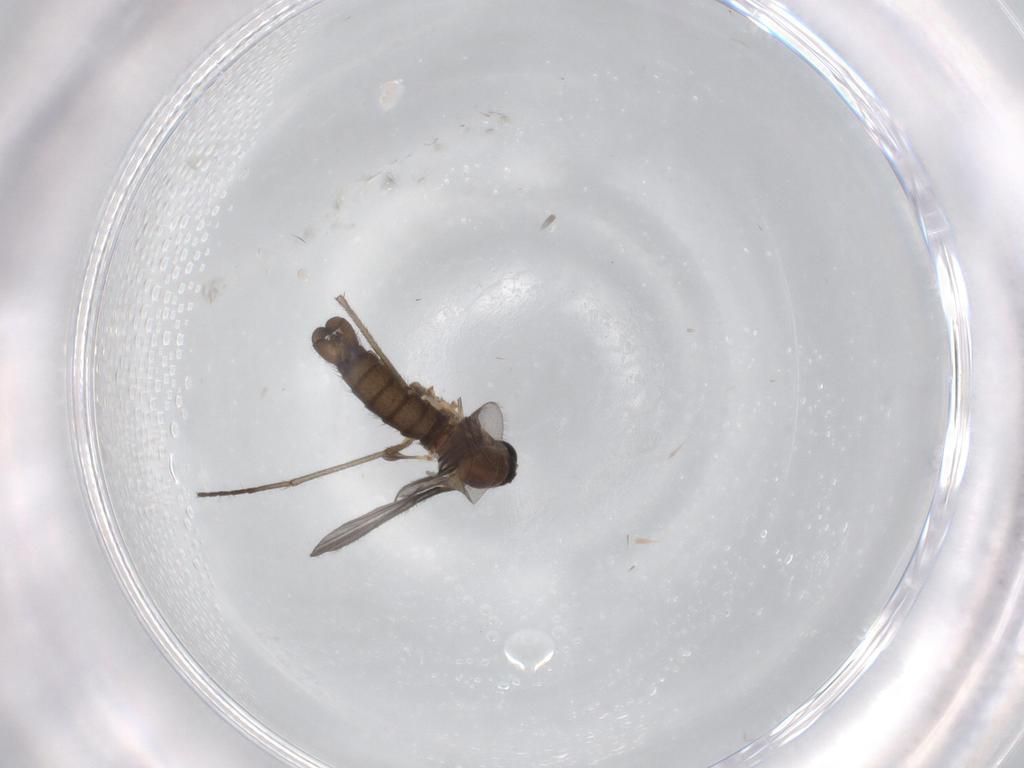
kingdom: Animalia
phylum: Arthropoda
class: Insecta
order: Diptera
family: Sciaridae
